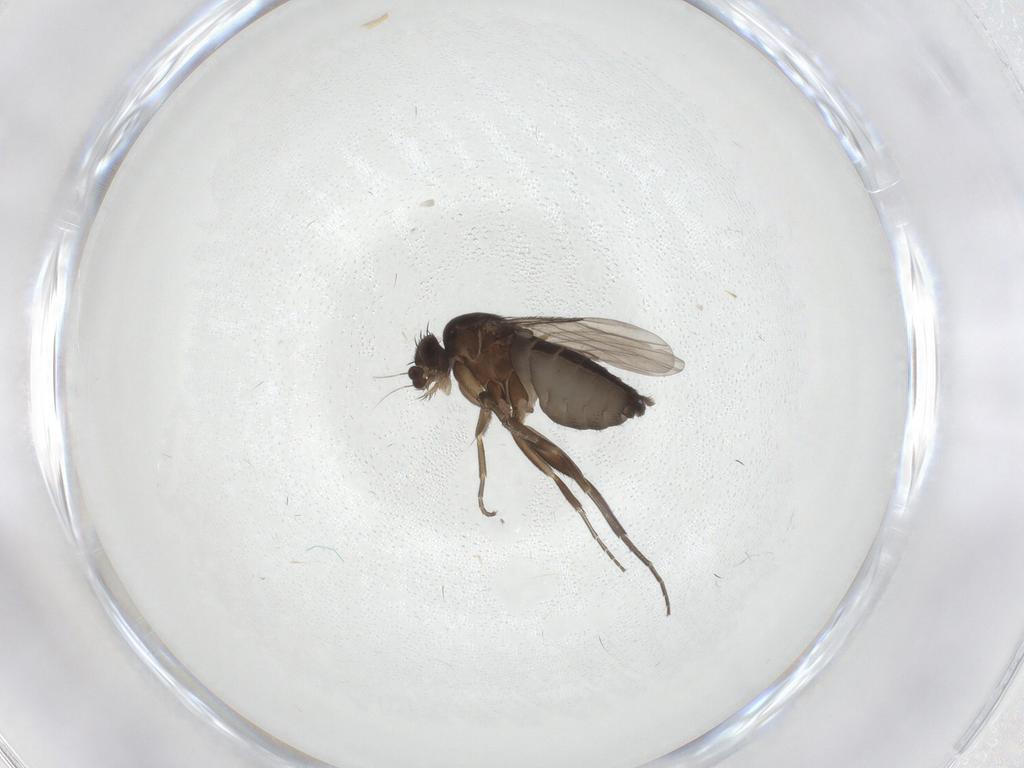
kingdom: Animalia
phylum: Arthropoda
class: Insecta
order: Diptera
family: Phoridae
